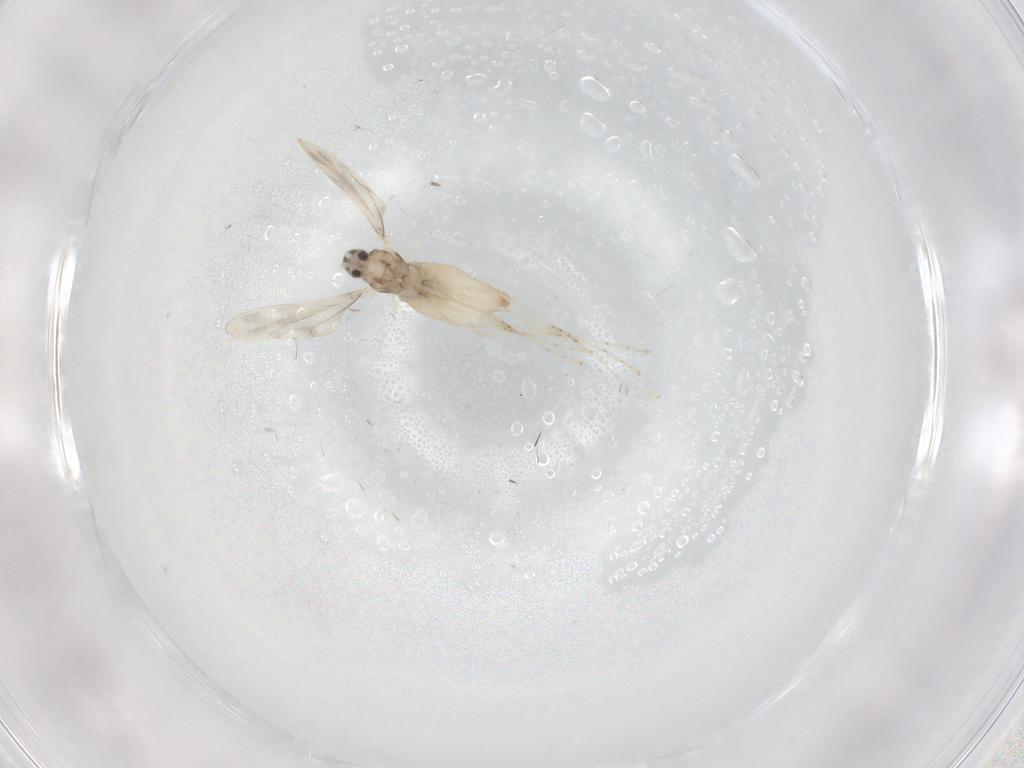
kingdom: Animalia
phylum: Arthropoda
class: Insecta
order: Diptera
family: Cecidomyiidae
